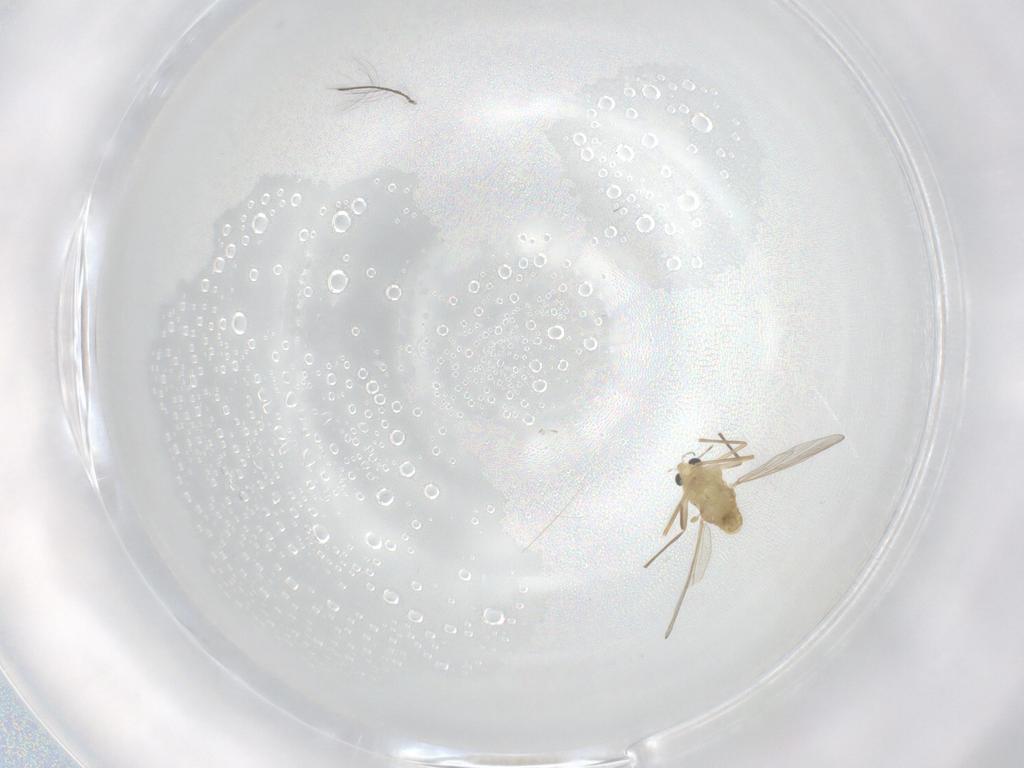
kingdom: Animalia
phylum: Arthropoda
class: Insecta
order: Diptera
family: Chironomidae
